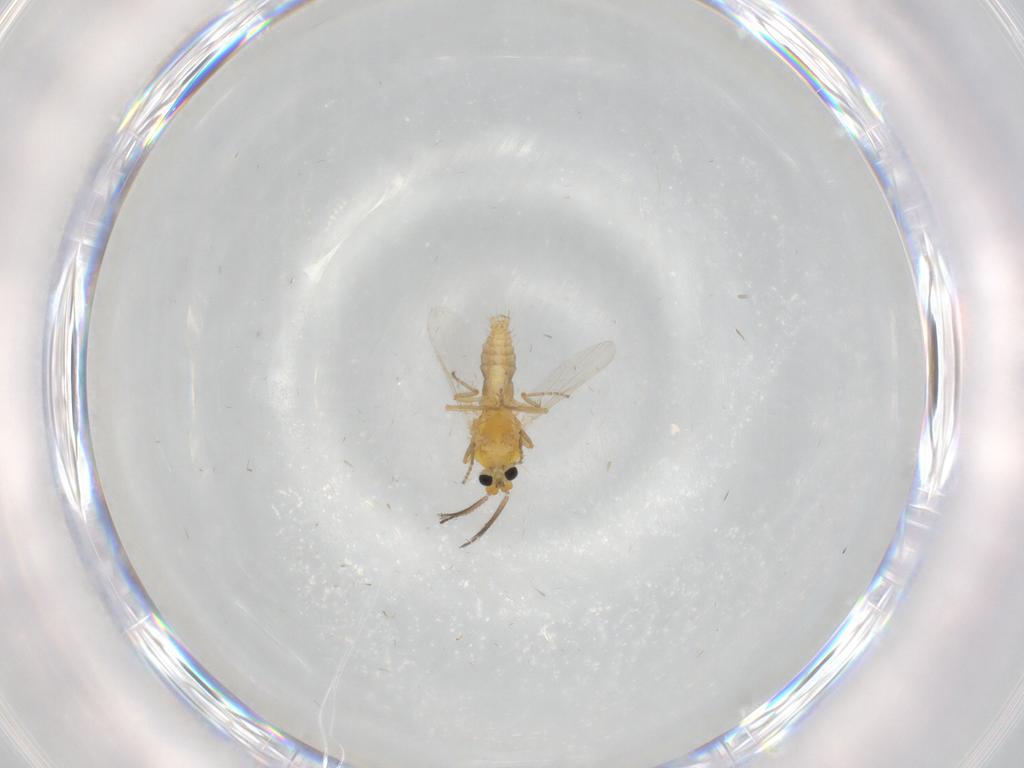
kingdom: Animalia
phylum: Arthropoda
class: Insecta
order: Diptera
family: Ceratopogonidae
